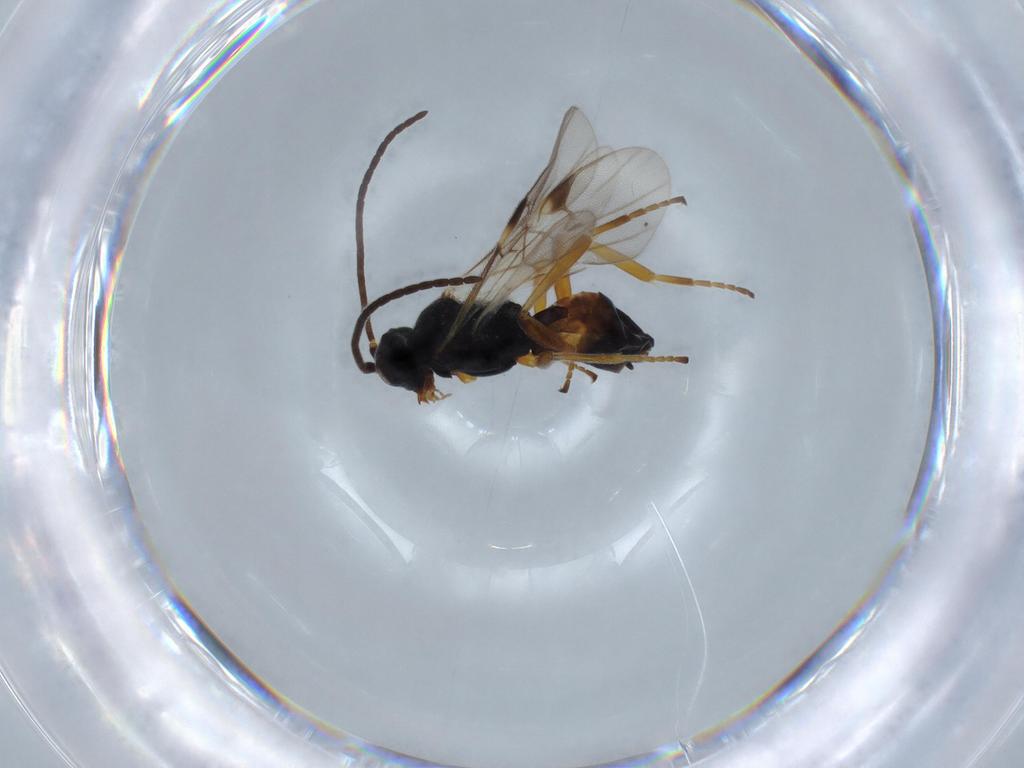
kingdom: Animalia
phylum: Arthropoda
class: Insecta
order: Hymenoptera
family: Braconidae
